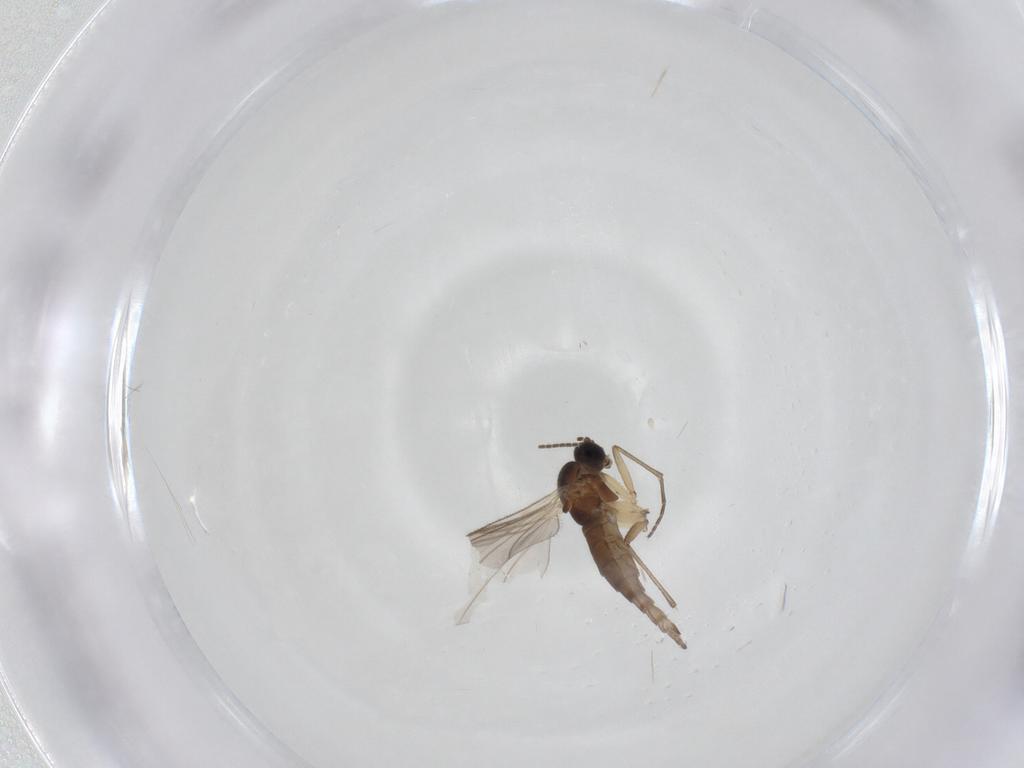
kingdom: Animalia
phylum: Arthropoda
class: Insecta
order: Diptera
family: Sciaridae
